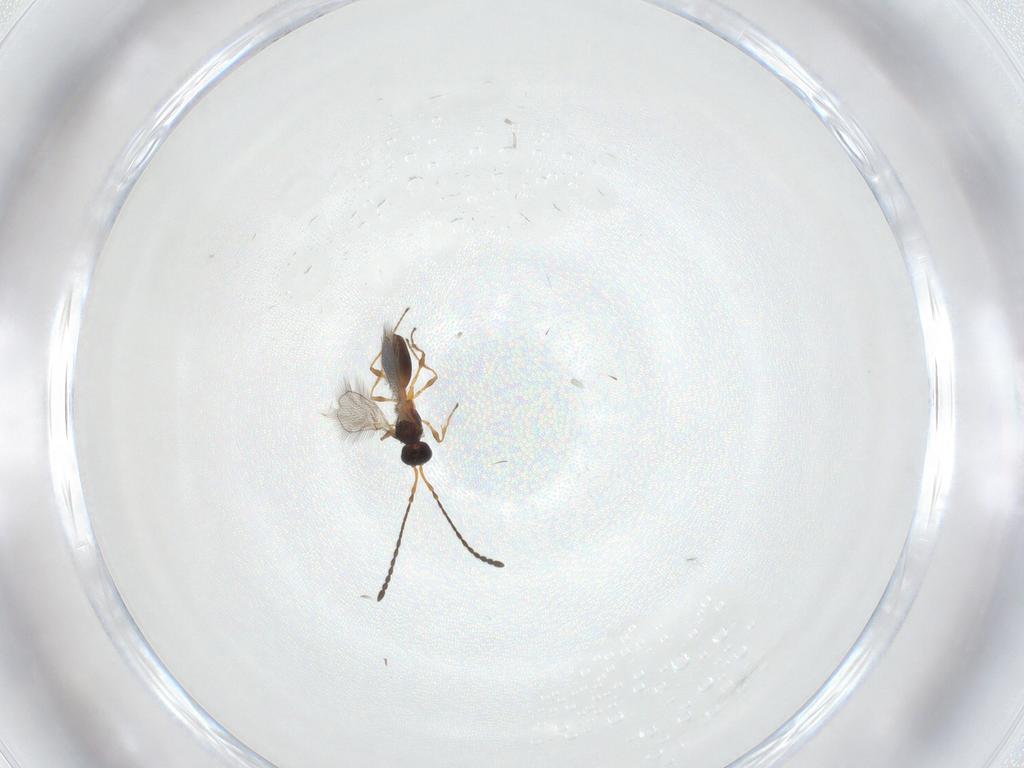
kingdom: Animalia
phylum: Arthropoda
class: Insecta
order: Hymenoptera
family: Diapriidae
